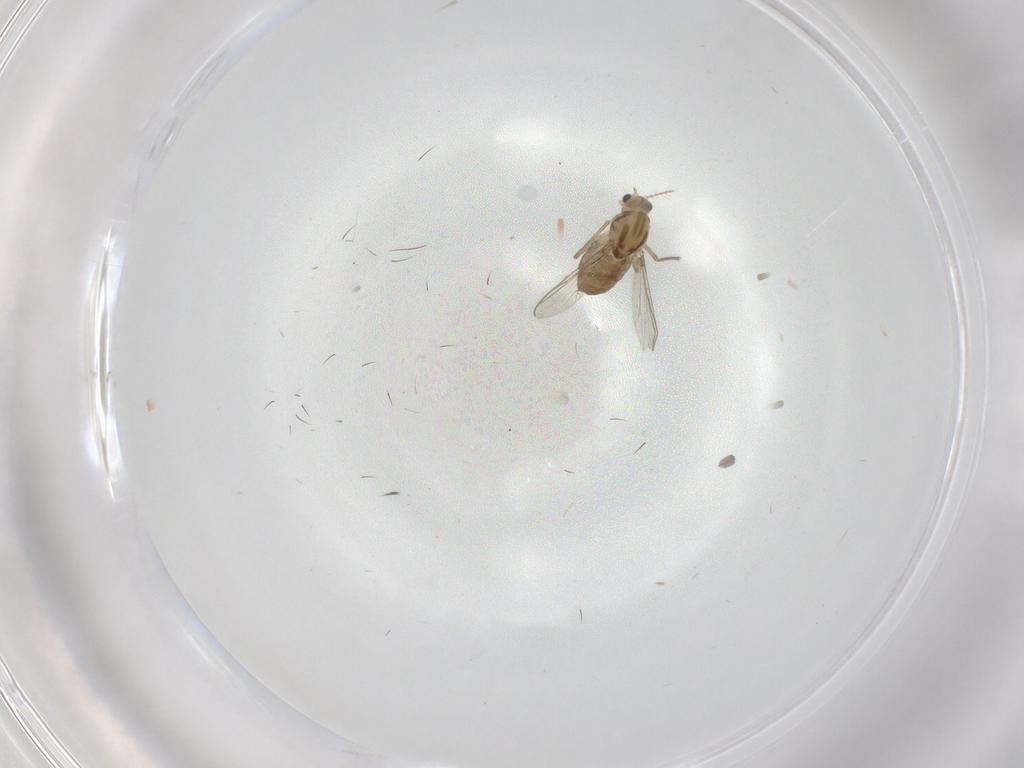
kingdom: Animalia
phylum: Arthropoda
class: Insecta
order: Diptera
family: Chironomidae
